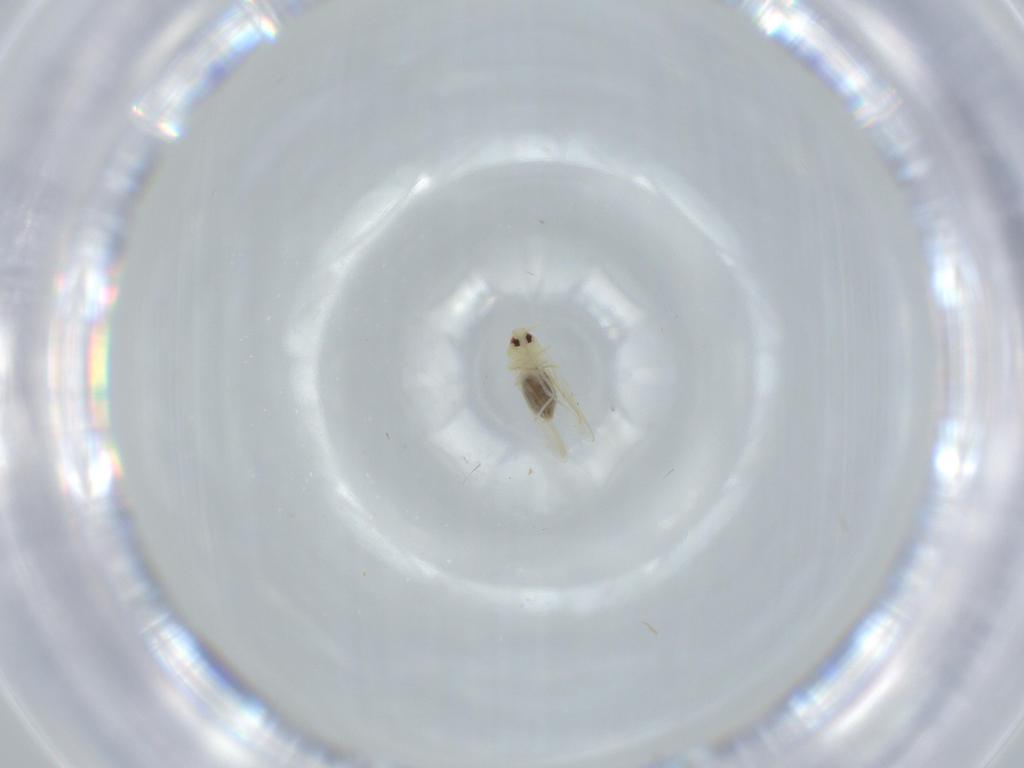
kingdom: Animalia
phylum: Arthropoda
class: Insecta
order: Hemiptera
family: Aleyrodidae
